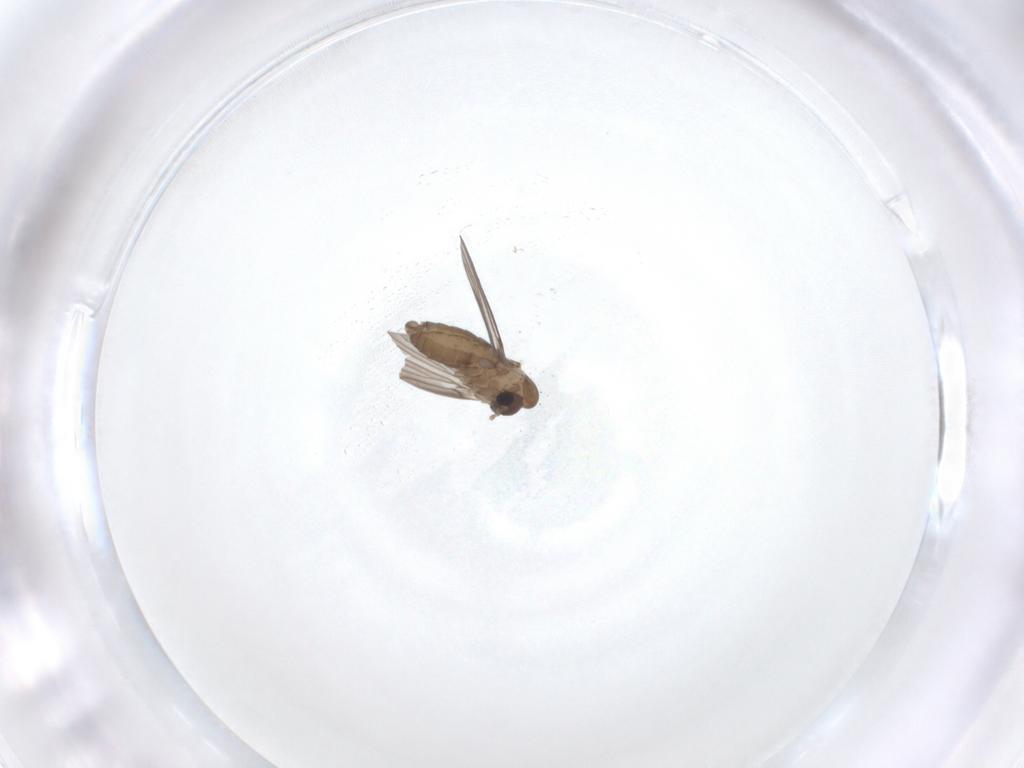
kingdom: Animalia
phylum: Arthropoda
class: Insecta
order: Diptera
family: Psychodidae
